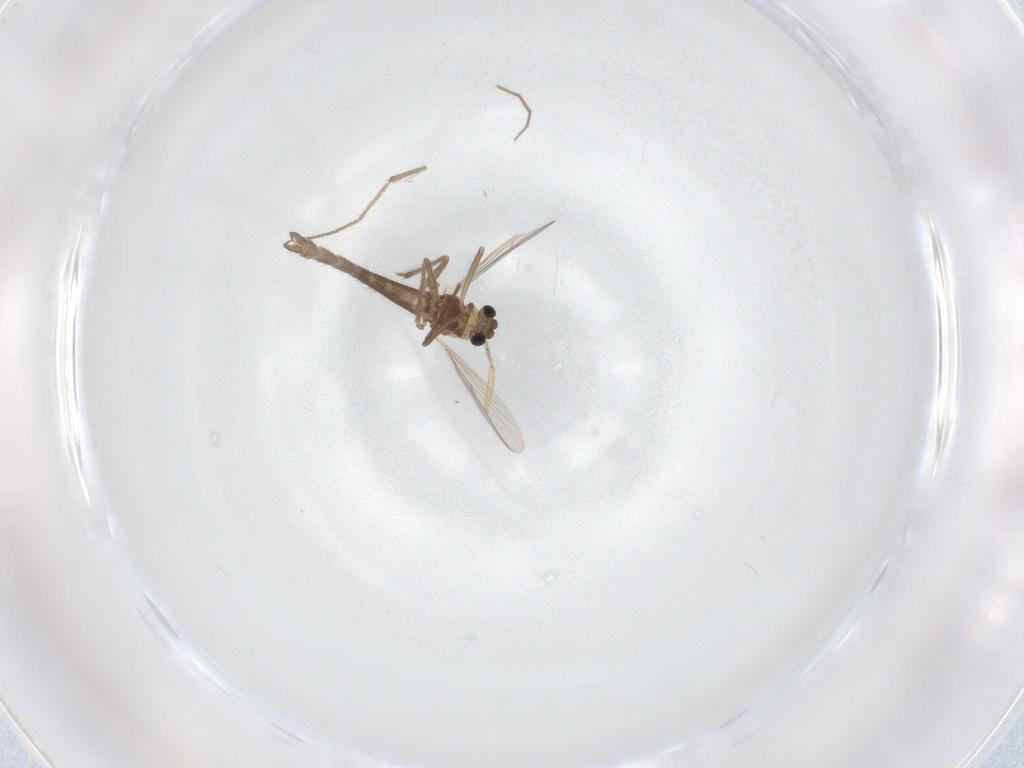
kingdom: Animalia
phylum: Arthropoda
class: Insecta
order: Diptera
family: Chironomidae
